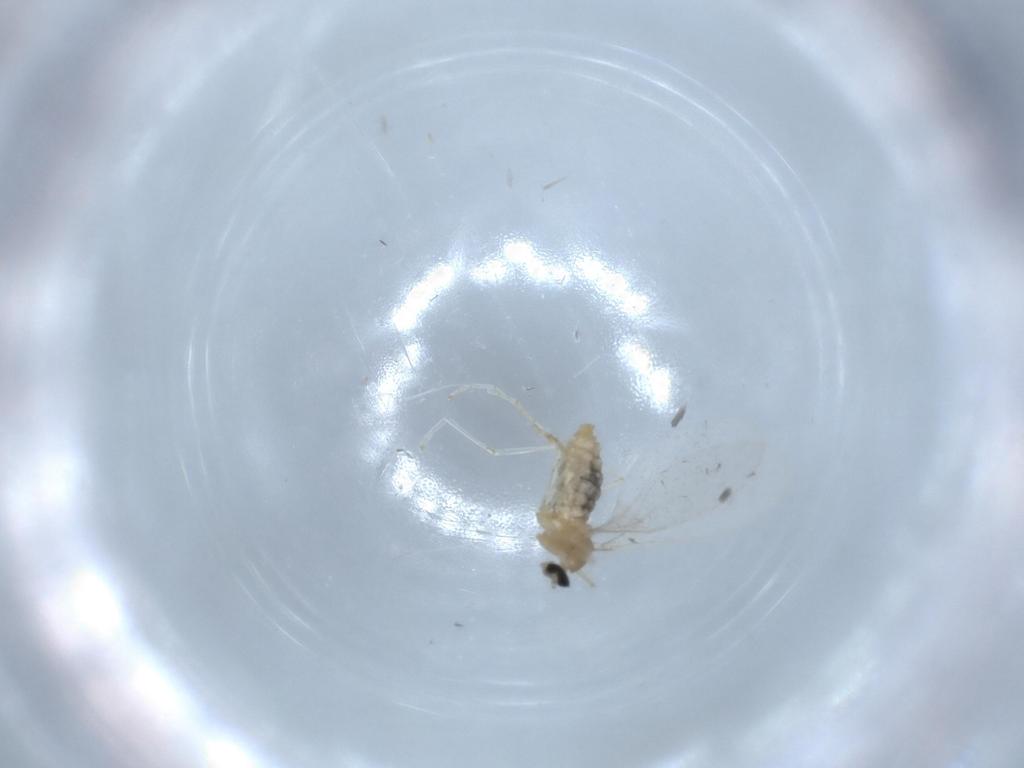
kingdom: Animalia
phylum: Arthropoda
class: Insecta
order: Diptera
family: Cecidomyiidae
